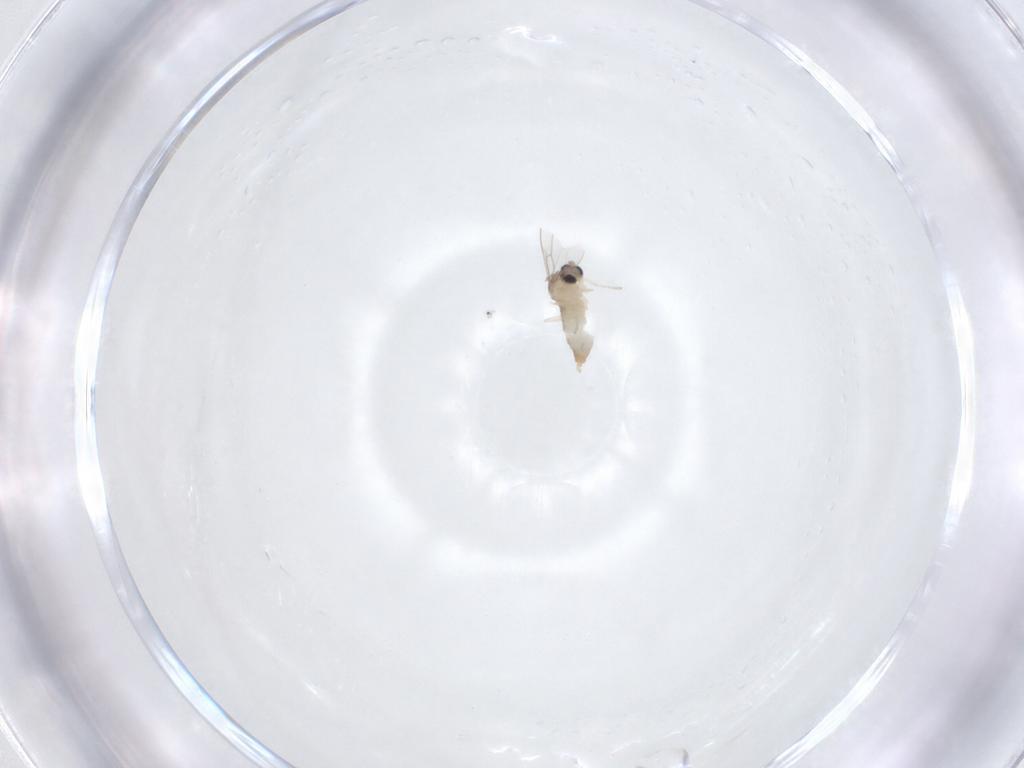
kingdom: Animalia
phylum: Arthropoda
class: Insecta
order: Diptera
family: Cecidomyiidae
